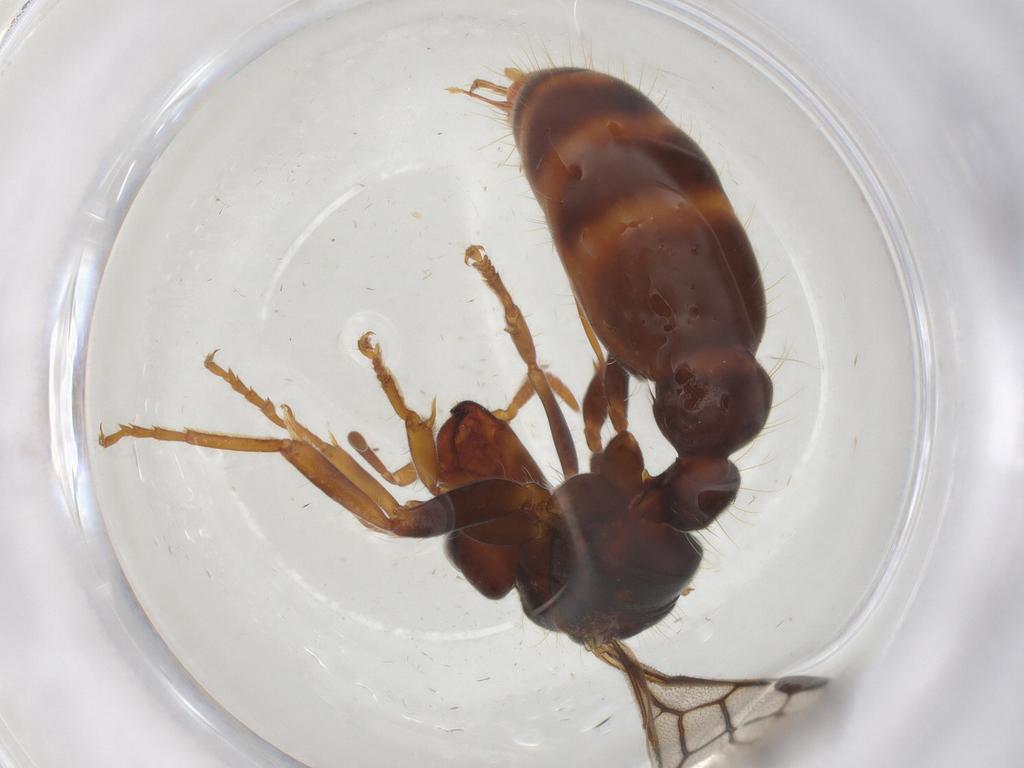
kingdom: Animalia
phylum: Arthropoda
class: Insecta
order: Hymenoptera
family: Formicidae
